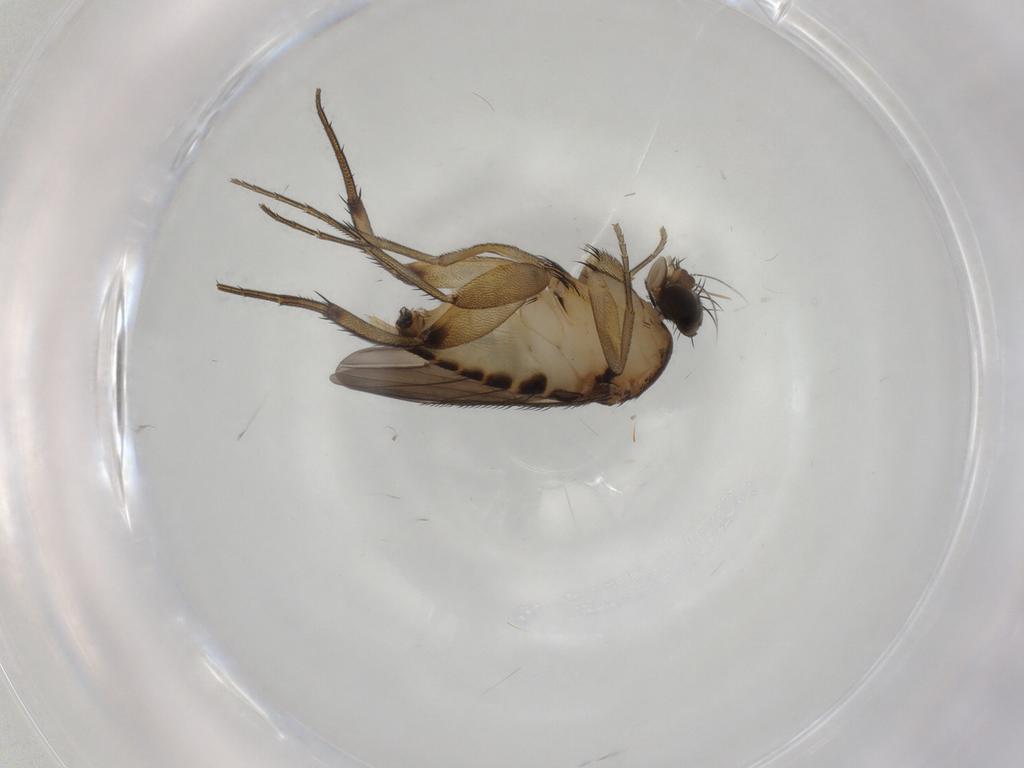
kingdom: Animalia
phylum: Arthropoda
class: Insecta
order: Diptera
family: Phoridae
